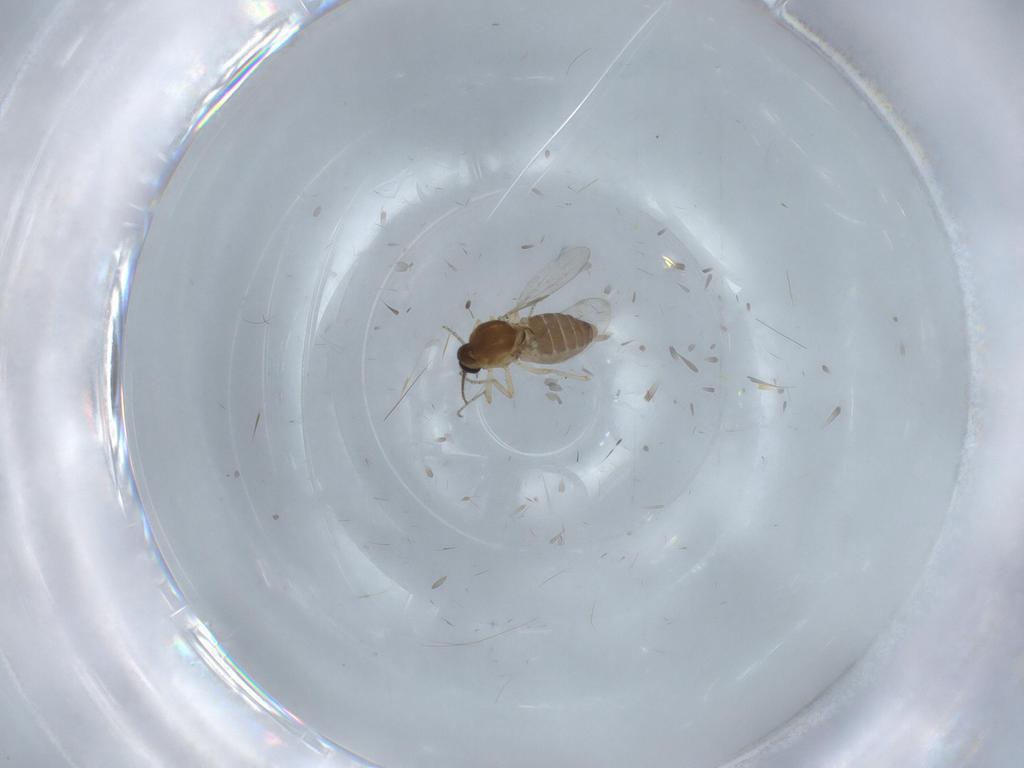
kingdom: Animalia
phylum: Arthropoda
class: Insecta
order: Diptera
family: Ceratopogonidae
